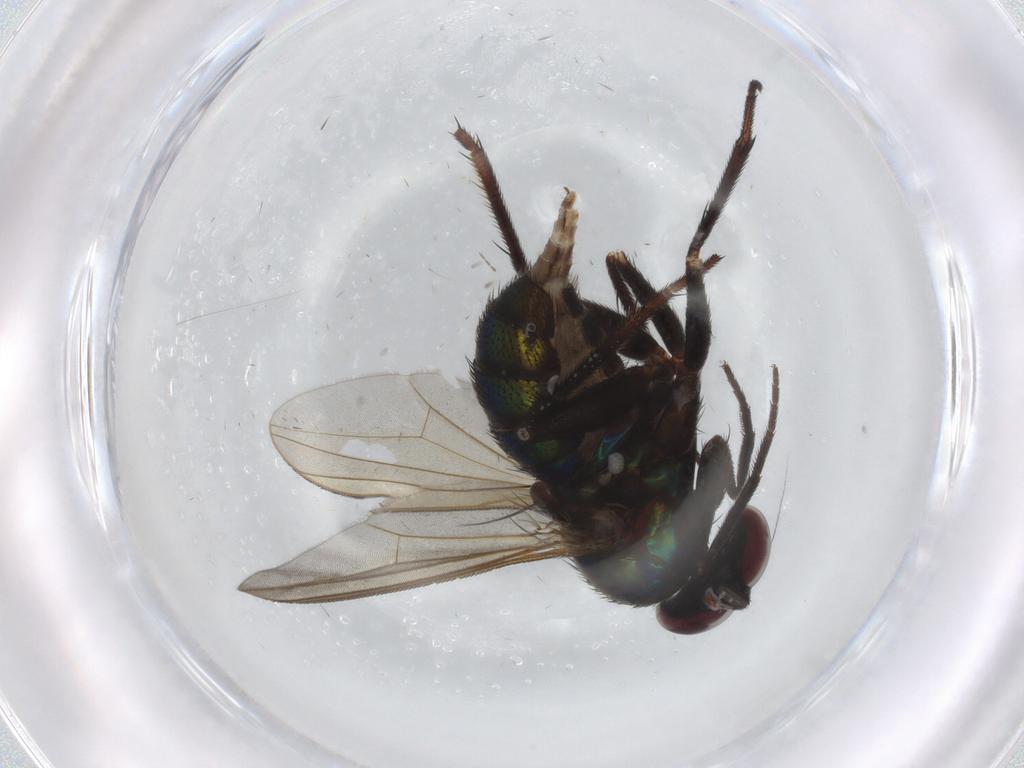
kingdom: Animalia
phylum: Arthropoda
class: Insecta
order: Diptera
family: Dolichopodidae
